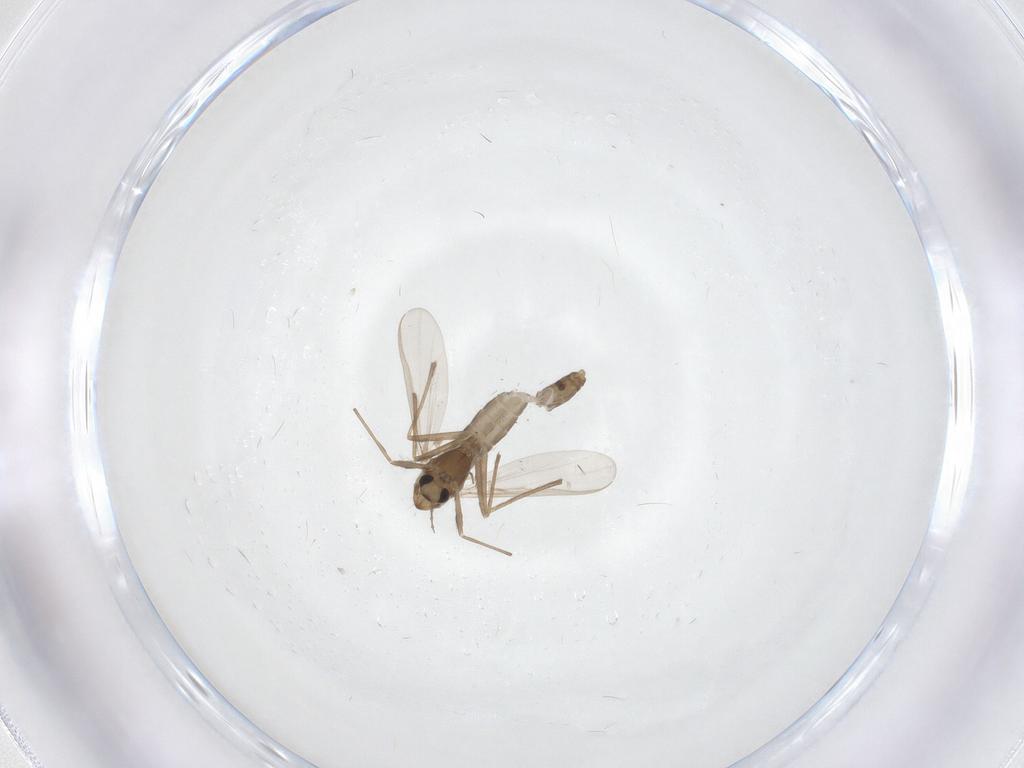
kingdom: Animalia
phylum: Arthropoda
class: Insecta
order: Diptera
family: Chironomidae
